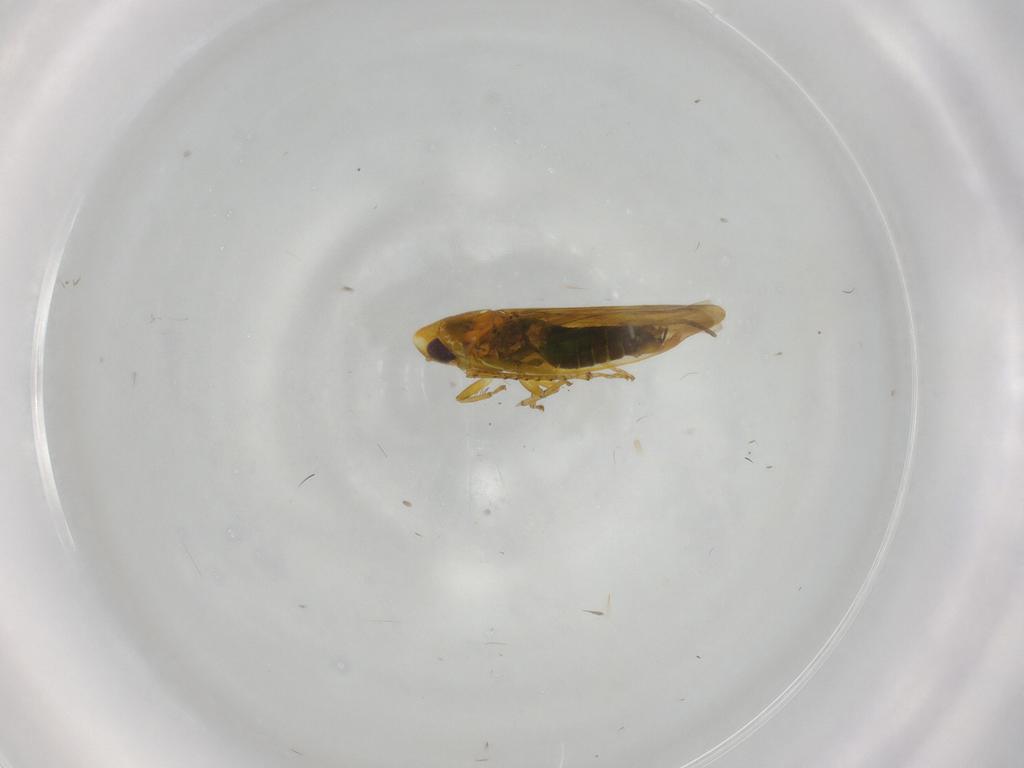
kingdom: Animalia
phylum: Arthropoda
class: Insecta
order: Hemiptera
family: Cicadellidae
